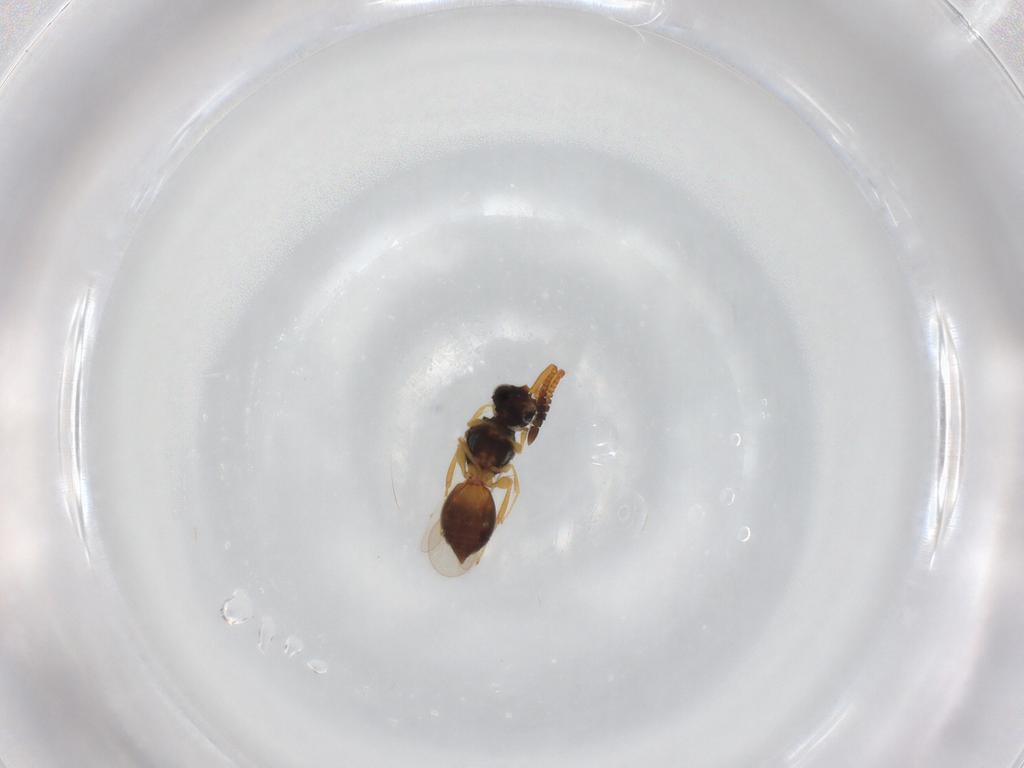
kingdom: Animalia
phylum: Arthropoda
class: Insecta
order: Hymenoptera
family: Megaspilidae
